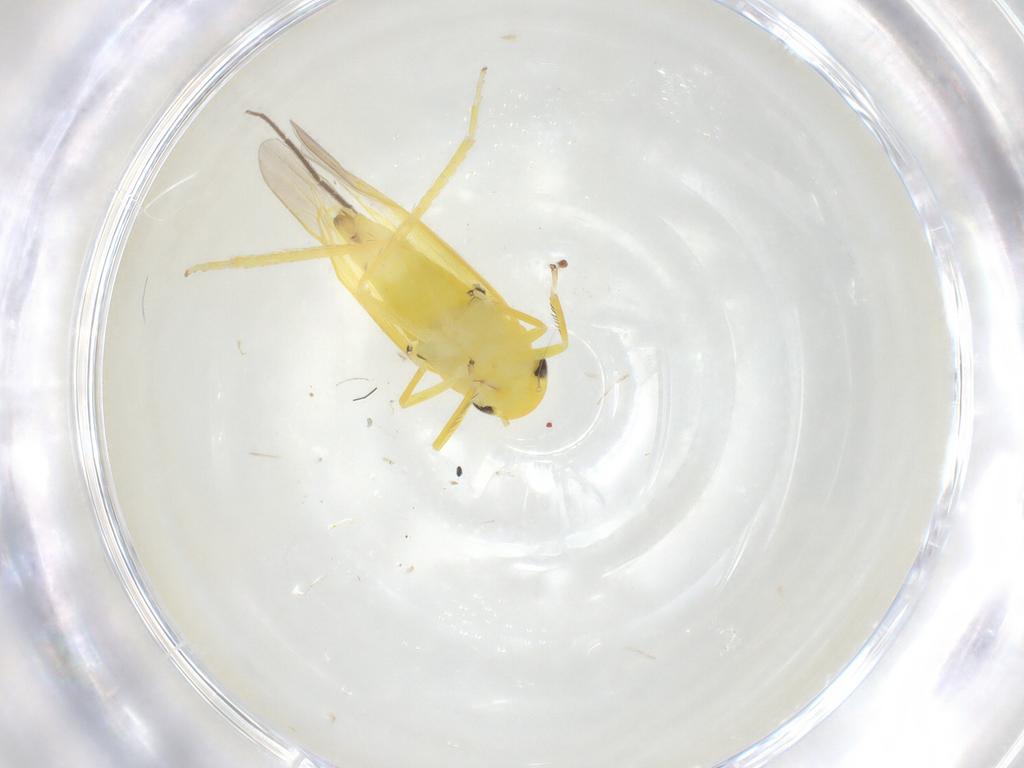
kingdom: Animalia
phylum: Arthropoda
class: Insecta
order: Hemiptera
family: Cicadellidae
